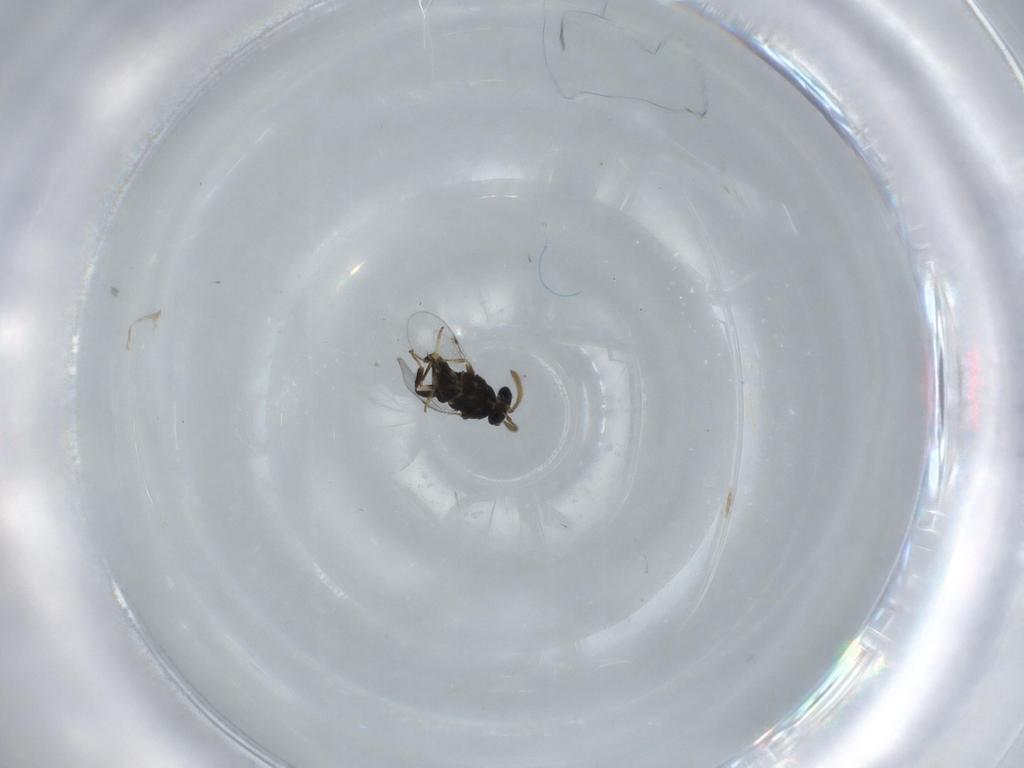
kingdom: Animalia
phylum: Arthropoda
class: Insecta
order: Hymenoptera
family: Encyrtidae
